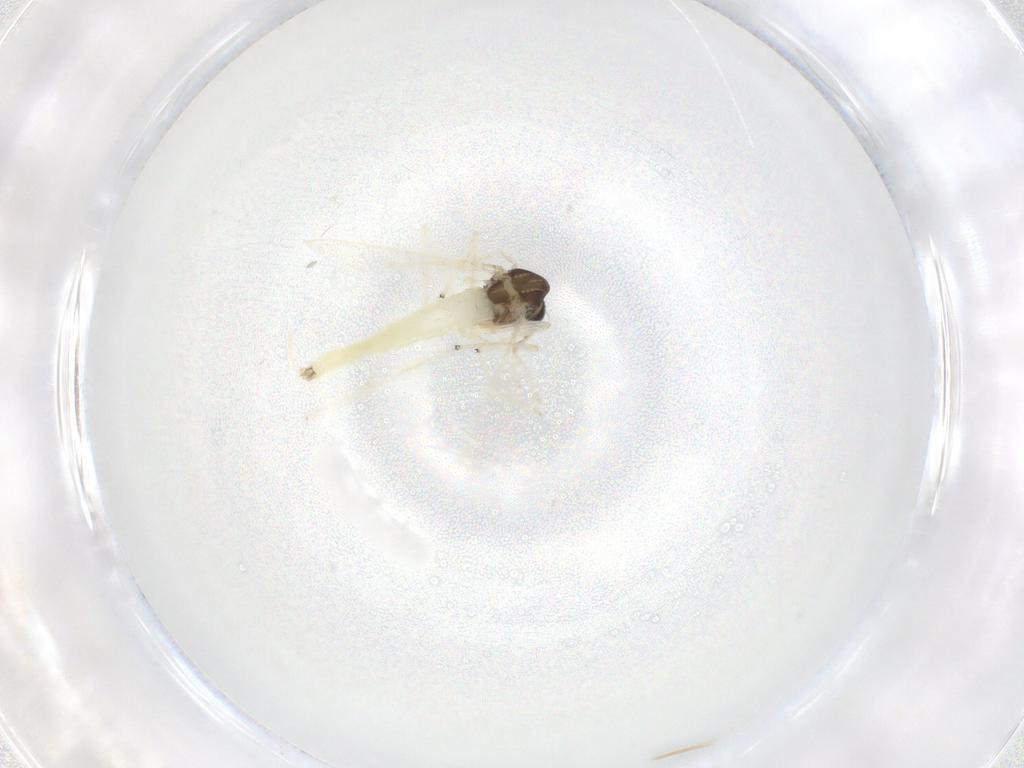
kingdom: Animalia
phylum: Arthropoda
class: Insecta
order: Diptera
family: Chironomidae
